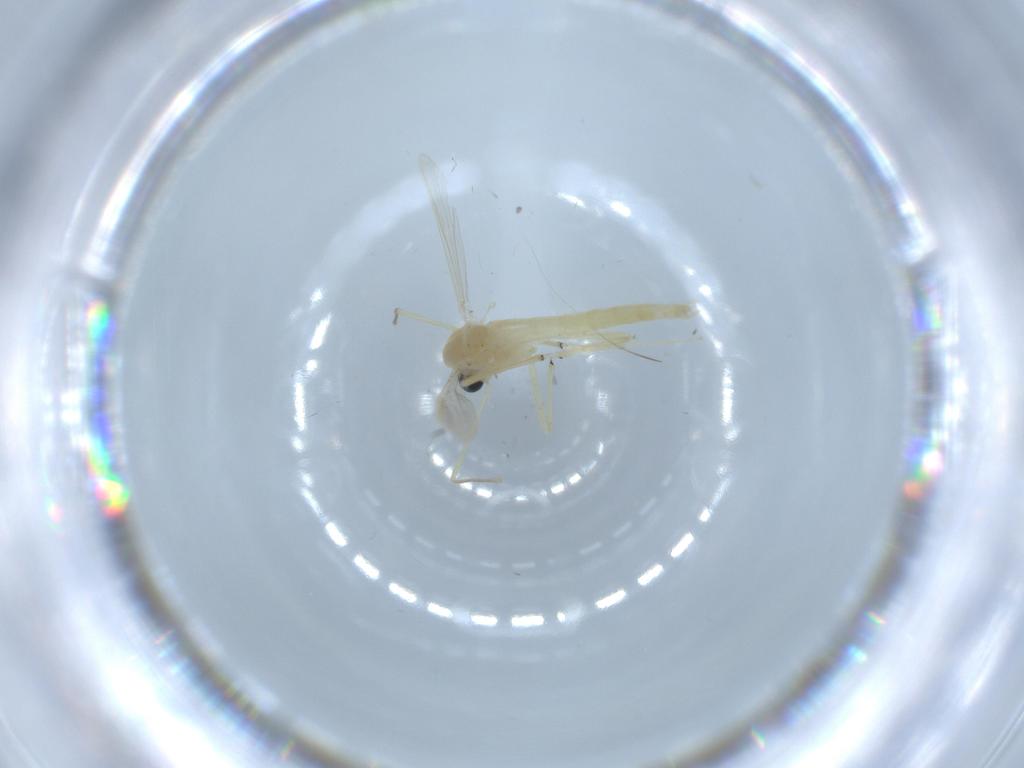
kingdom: Animalia
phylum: Arthropoda
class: Insecta
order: Diptera
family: Chironomidae
